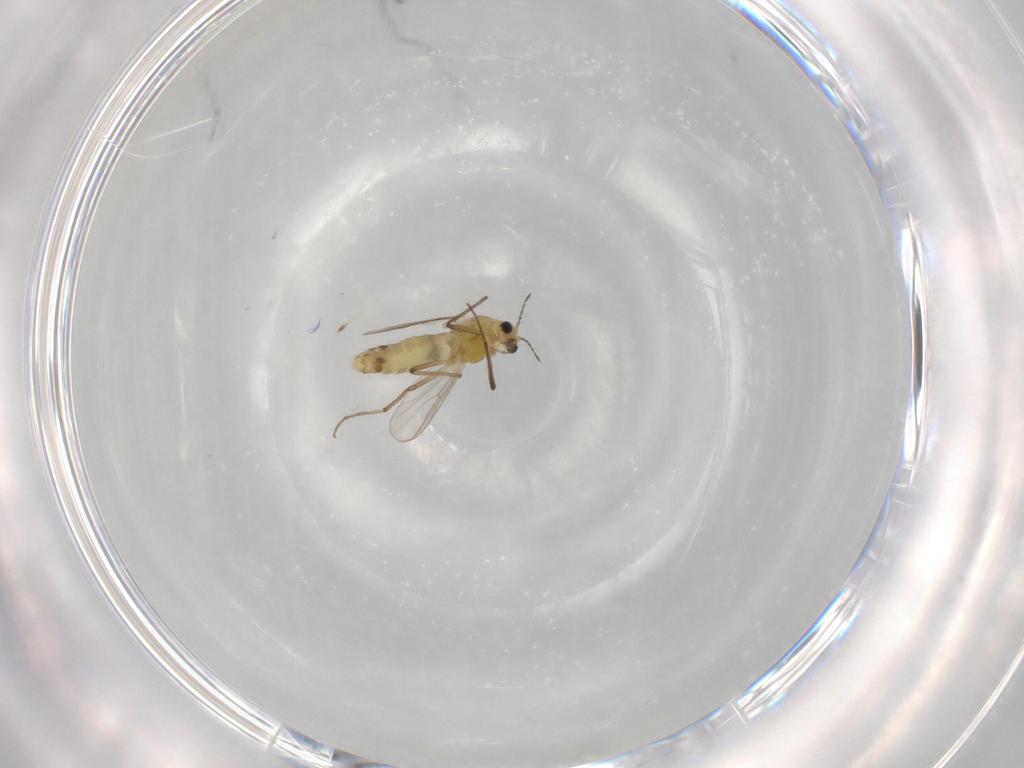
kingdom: Animalia
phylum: Arthropoda
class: Insecta
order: Diptera
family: Chironomidae
